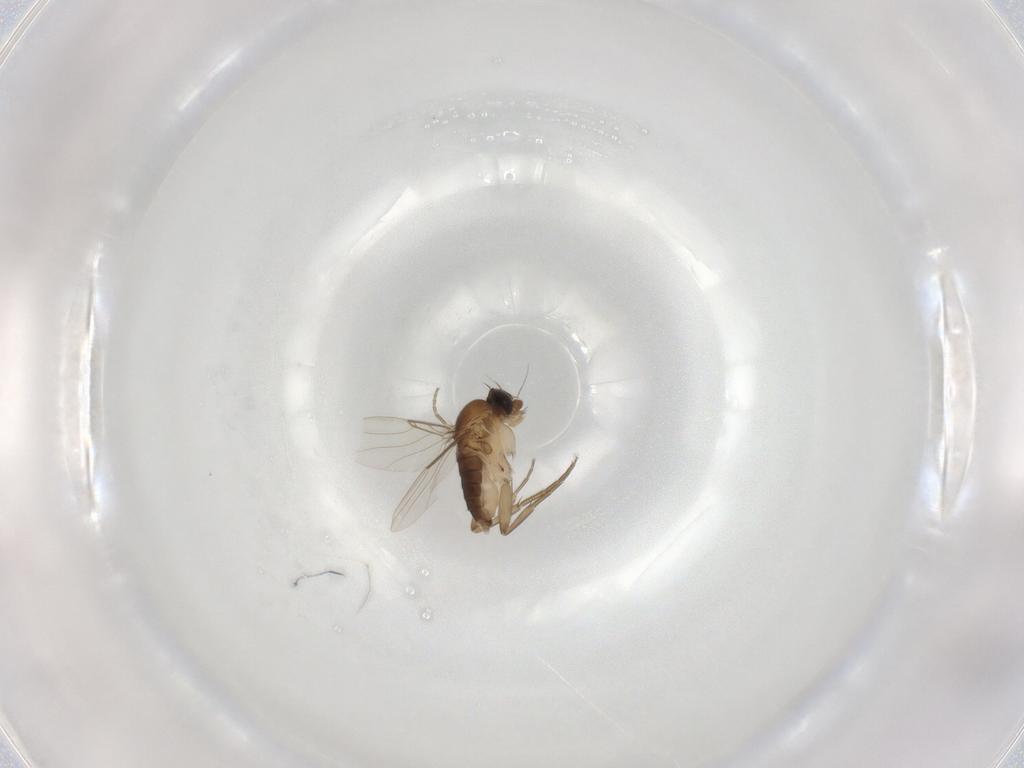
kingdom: Animalia
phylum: Arthropoda
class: Insecta
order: Diptera
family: Phoridae
